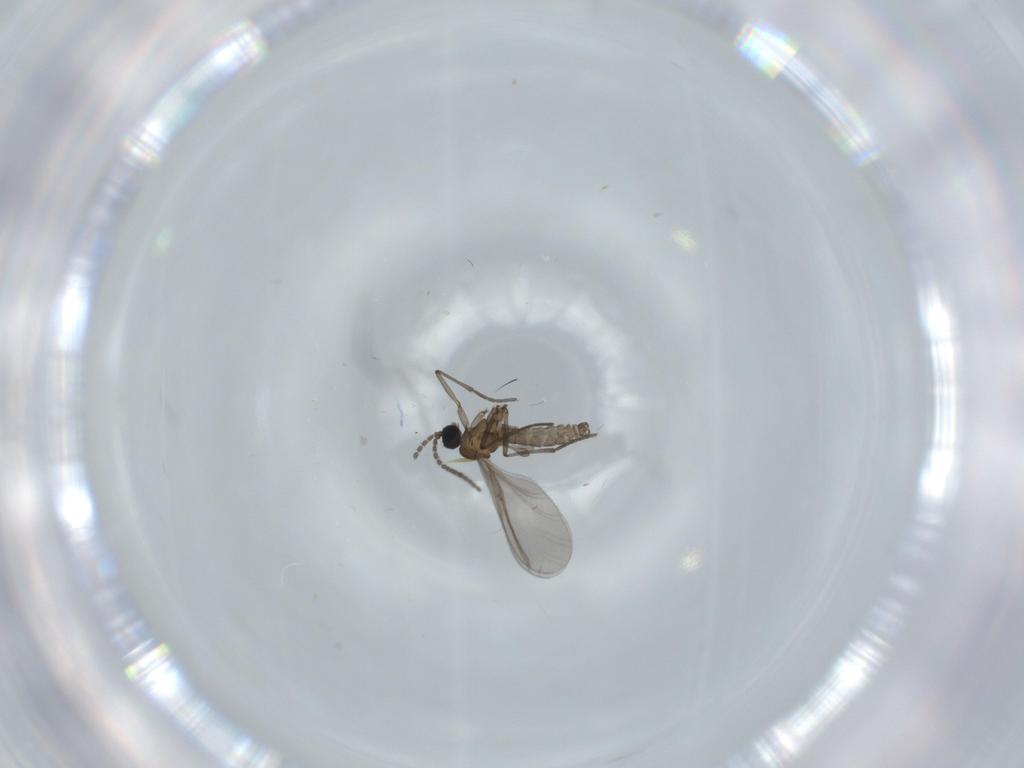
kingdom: Animalia
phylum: Arthropoda
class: Insecta
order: Diptera
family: Sciaridae
